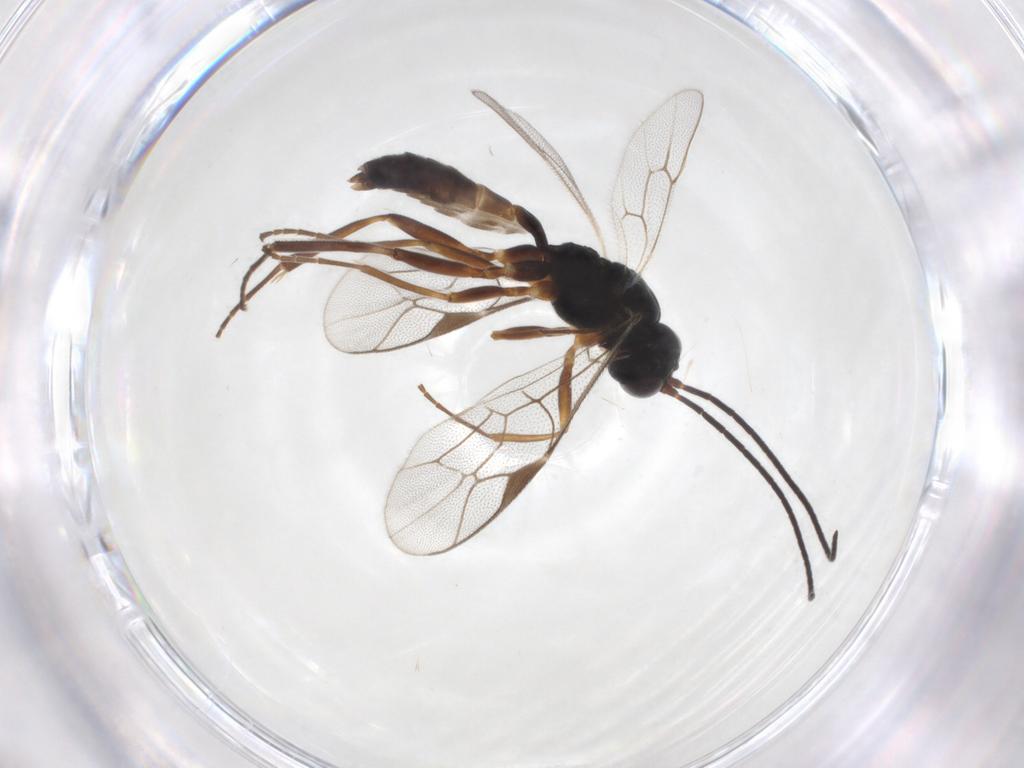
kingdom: Animalia
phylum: Arthropoda
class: Insecta
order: Hymenoptera
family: Ichneumonidae
